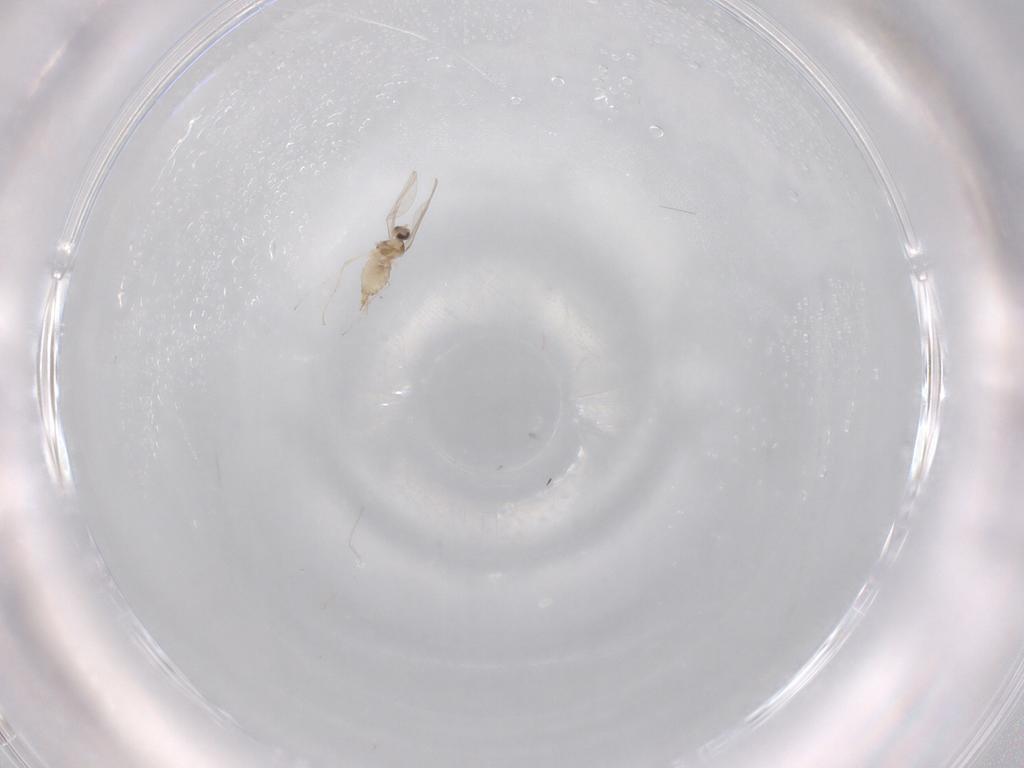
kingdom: Animalia
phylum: Arthropoda
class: Insecta
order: Diptera
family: Cecidomyiidae
